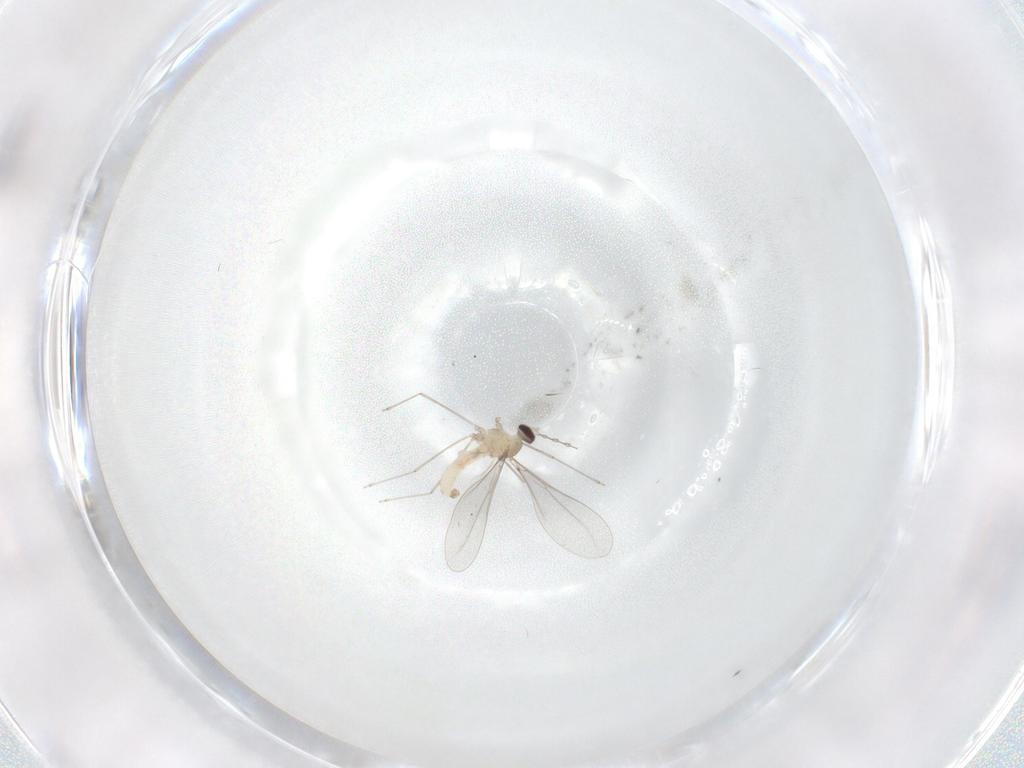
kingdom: Animalia
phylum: Arthropoda
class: Insecta
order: Diptera
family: Cecidomyiidae
